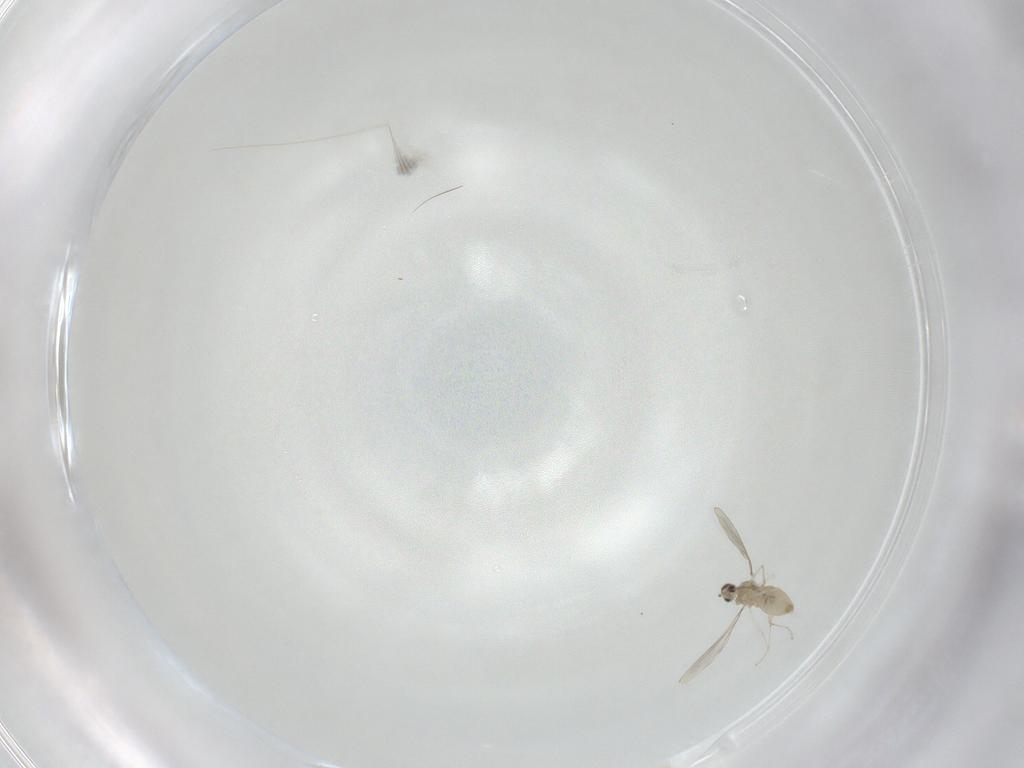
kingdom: Animalia
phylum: Arthropoda
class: Insecta
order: Diptera
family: Cecidomyiidae
